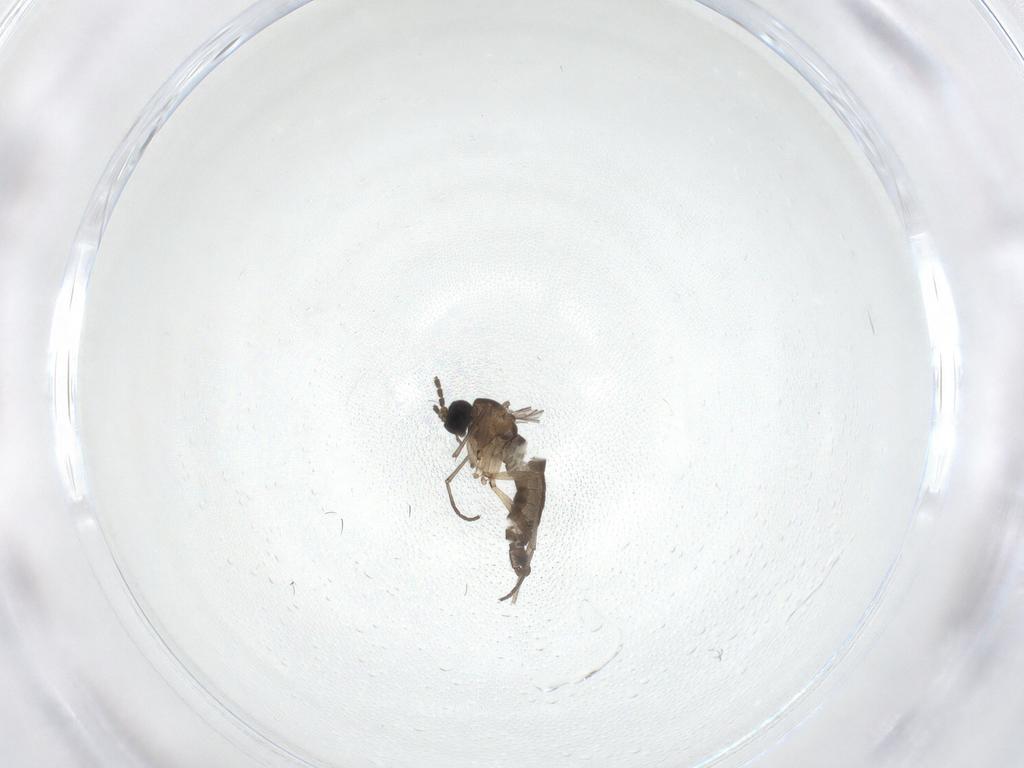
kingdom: Animalia
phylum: Arthropoda
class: Insecta
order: Diptera
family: Sciaridae
